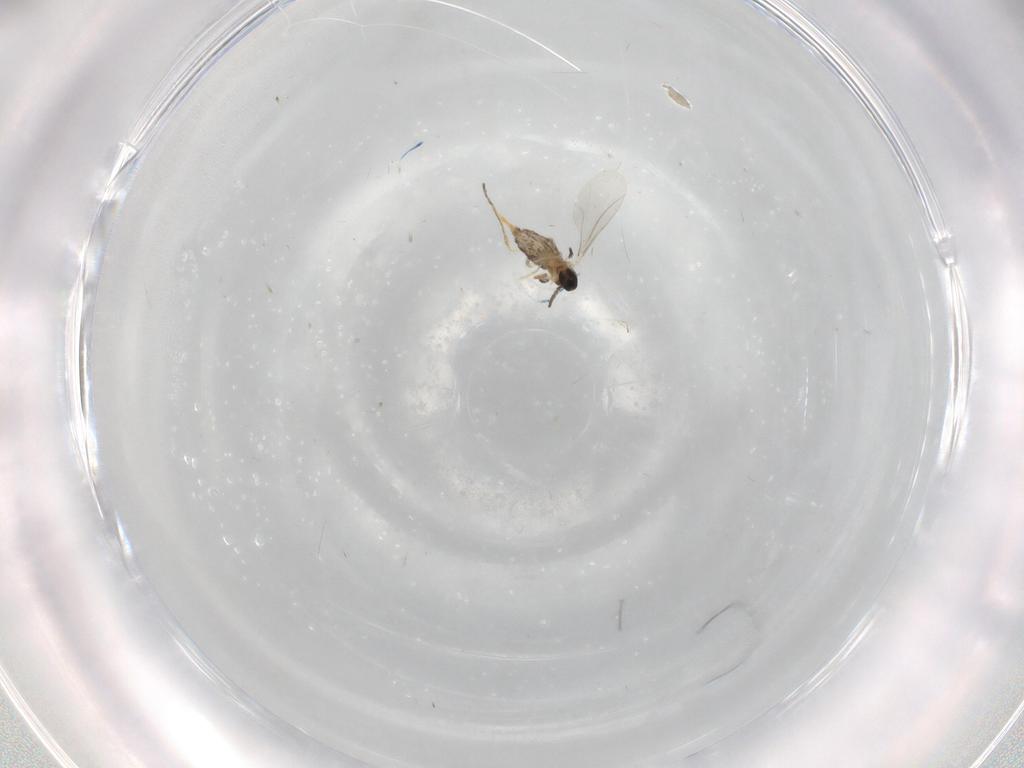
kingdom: Animalia
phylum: Arthropoda
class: Insecta
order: Diptera
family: Cecidomyiidae
